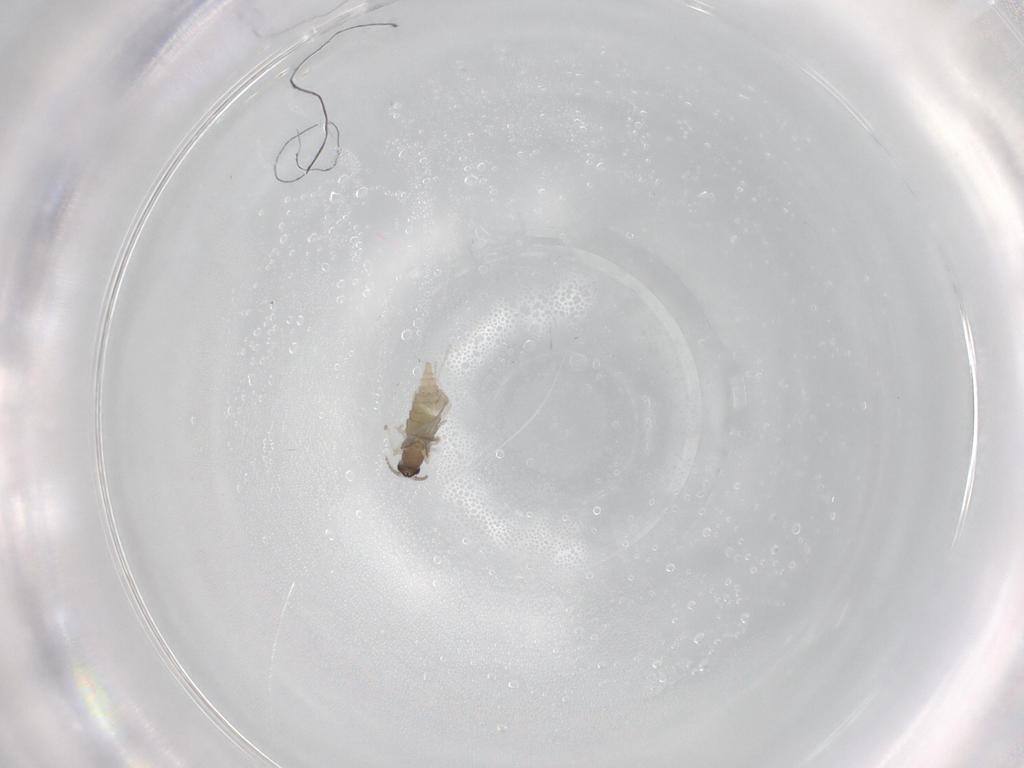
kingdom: Animalia
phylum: Arthropoda
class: Insecta
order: Diptera
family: Cecidomyiidae
